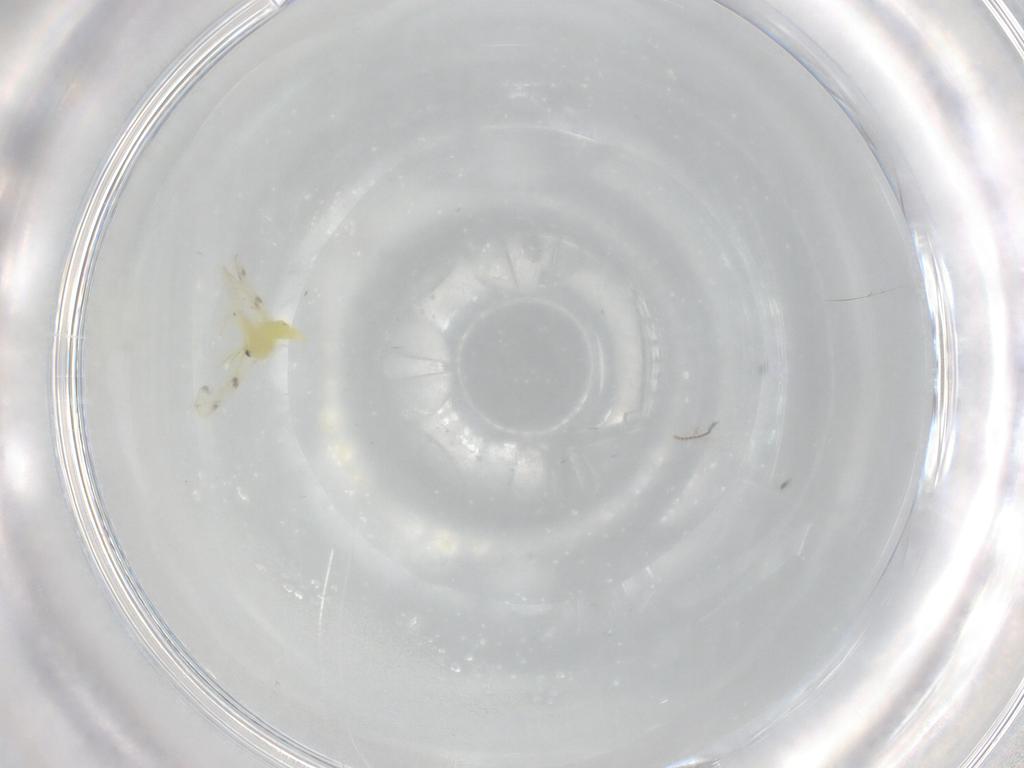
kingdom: Animalia
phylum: Arthropoda
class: Insecta
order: Hemiptera
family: Aleyrodidae
